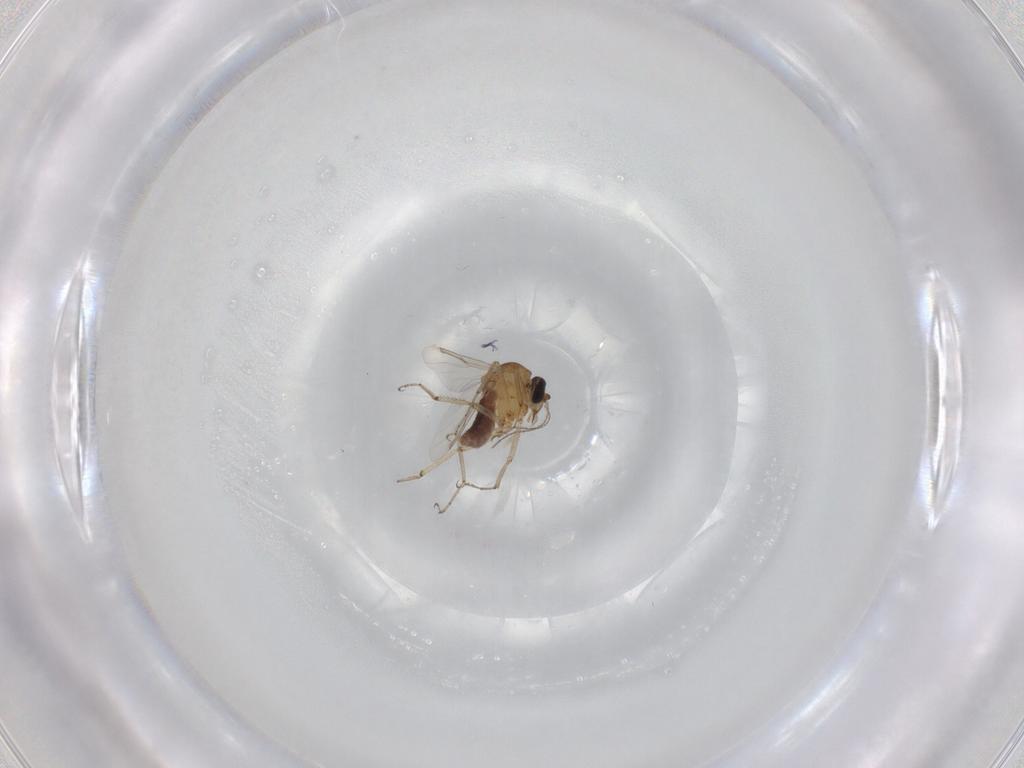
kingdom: Animalia
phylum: Arthropoda
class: Insecta
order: Diptera
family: Ceratopogonidae
